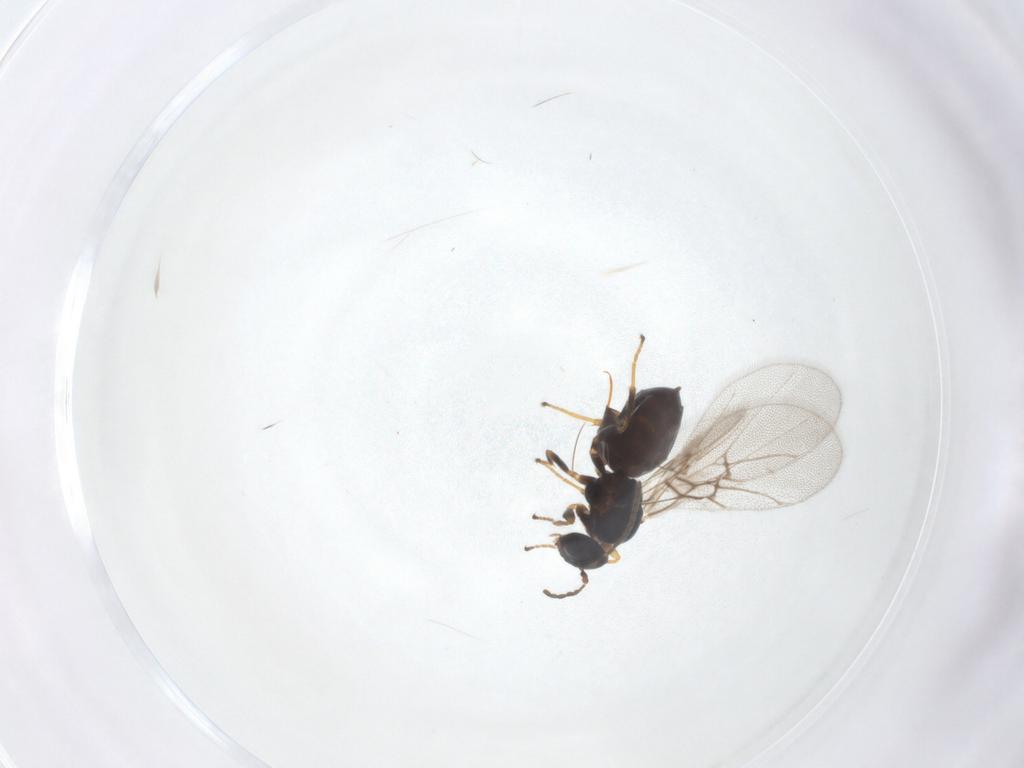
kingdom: Animalia
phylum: Arthropoda
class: Insecta
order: Hymenoptera
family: Cynipidae
